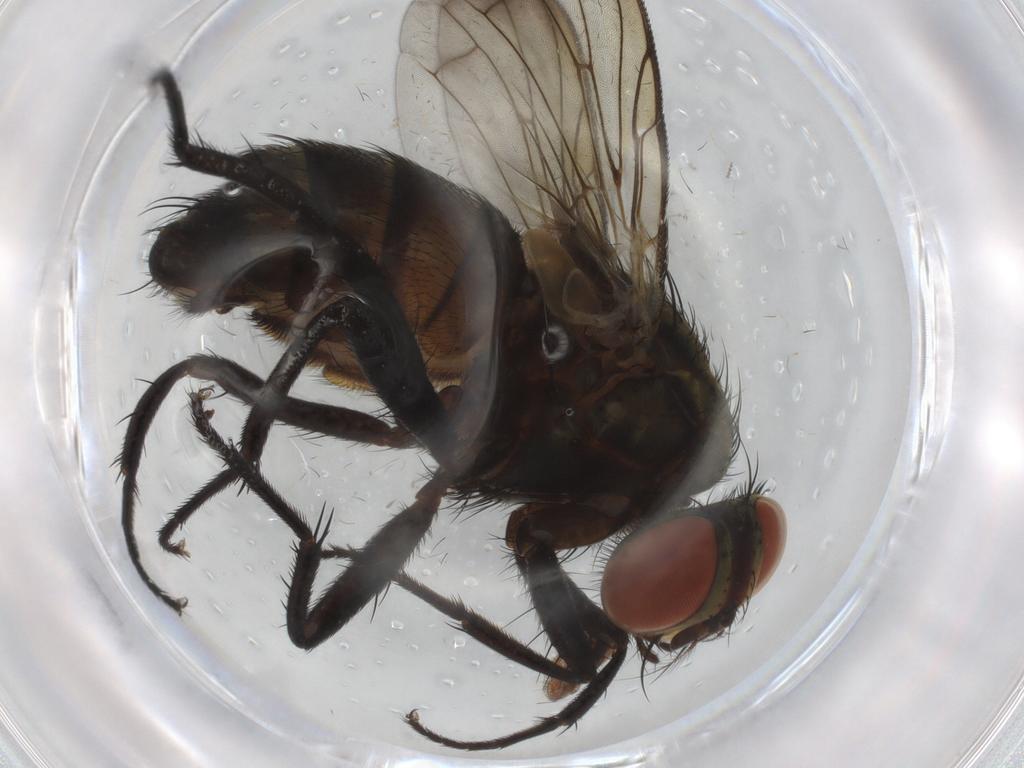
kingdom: Animalia
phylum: Arthropoda
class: Insecta
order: Diptera
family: Sarcophagidae
